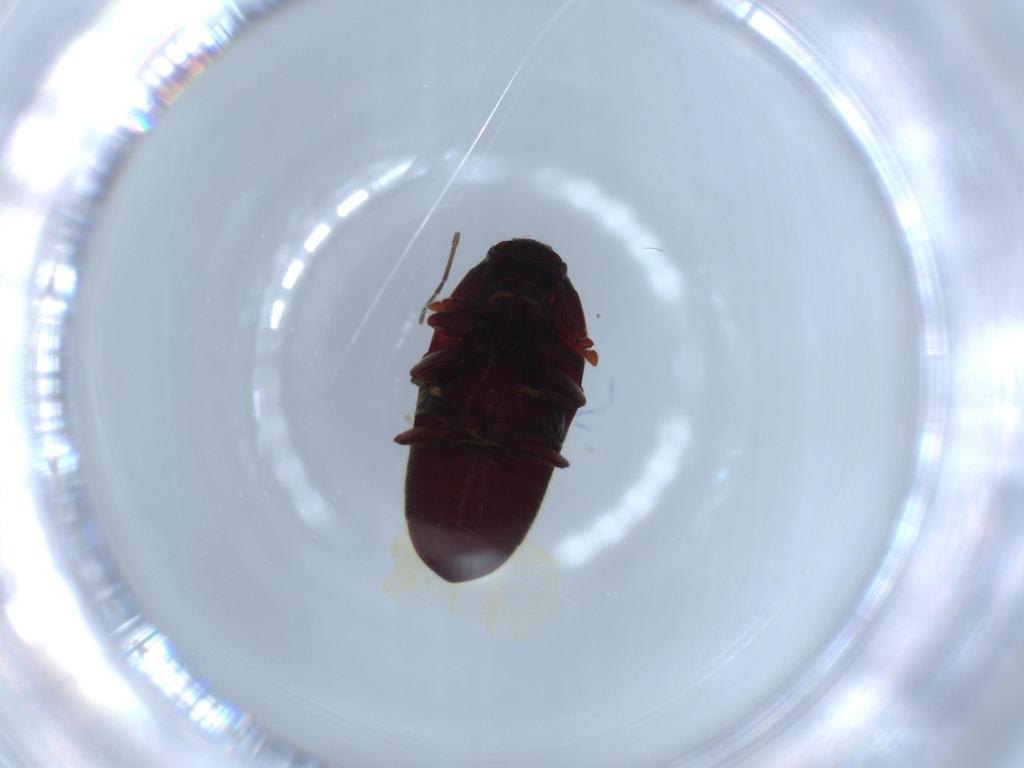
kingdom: Animalia
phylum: Arthropoda
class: Insecta
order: Coleoptera
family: Throscidae
